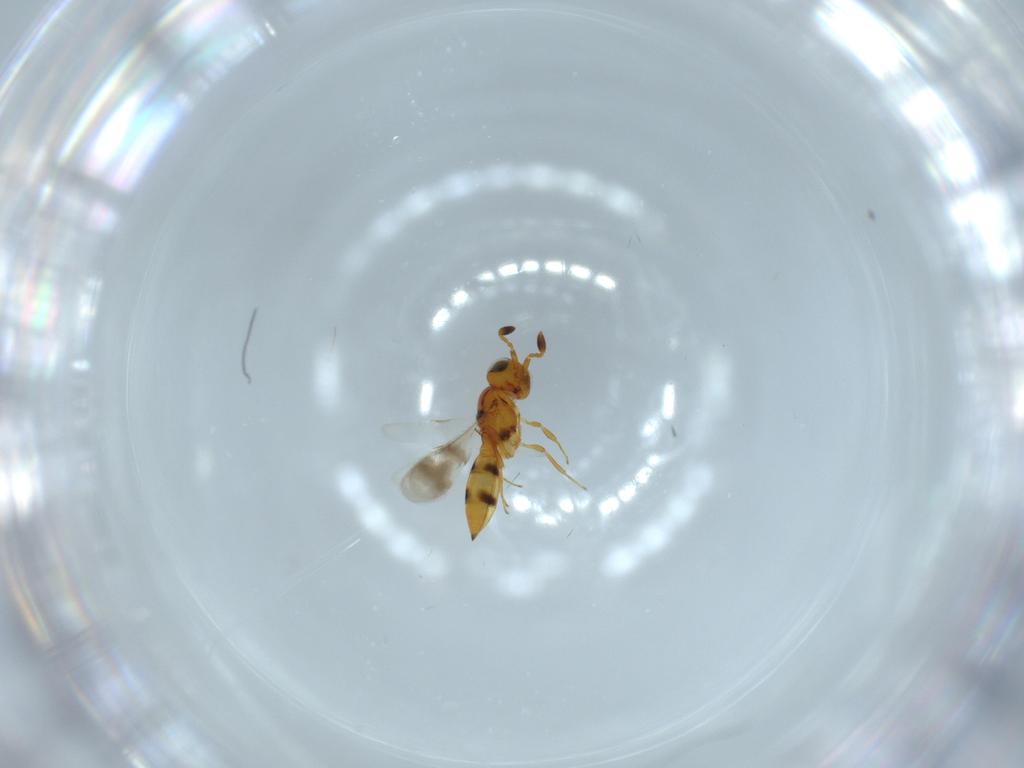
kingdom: Animalia
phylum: Arthropoda
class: Insecta
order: Hymenoptera
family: Scelionidae
